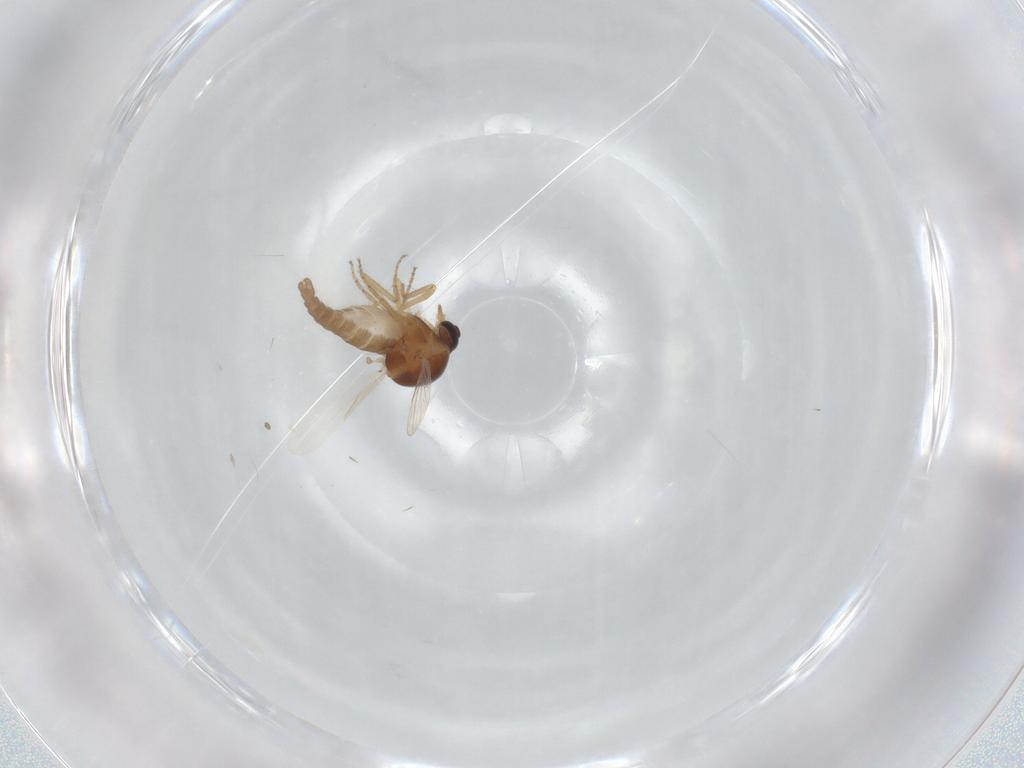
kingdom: Animalia
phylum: Arthropoda
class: Insecta
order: Diptera
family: Ceratopogonidae
